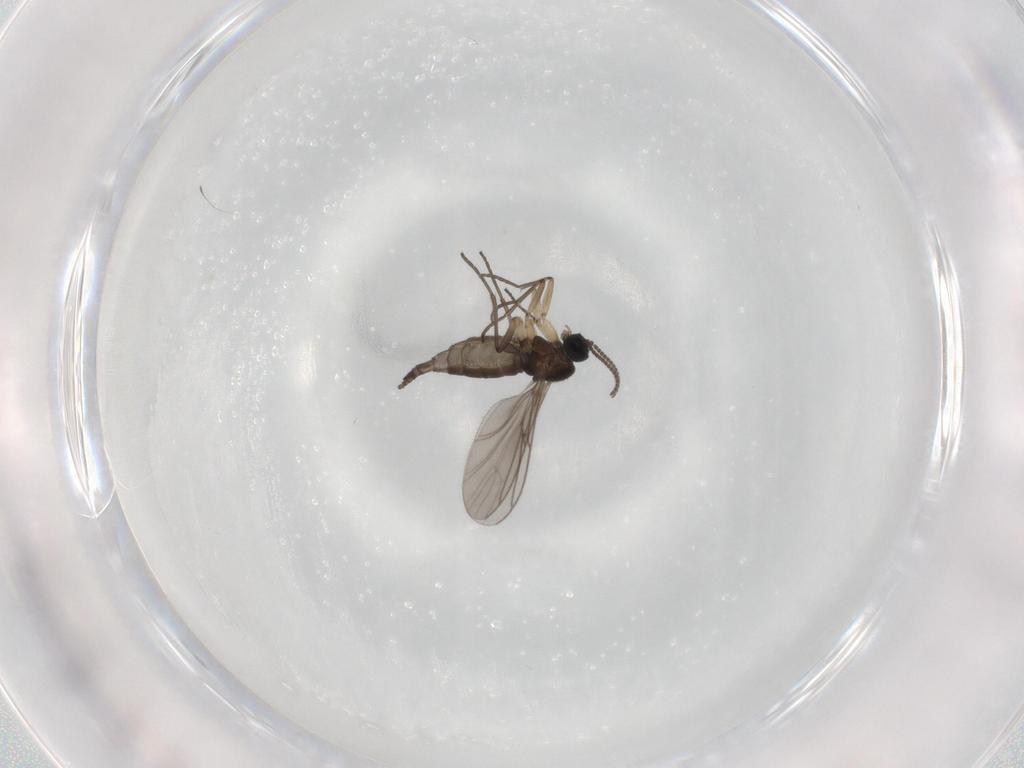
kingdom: Animalia
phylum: Arthropoda
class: Insecta
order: Diptera
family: Sciaridae
